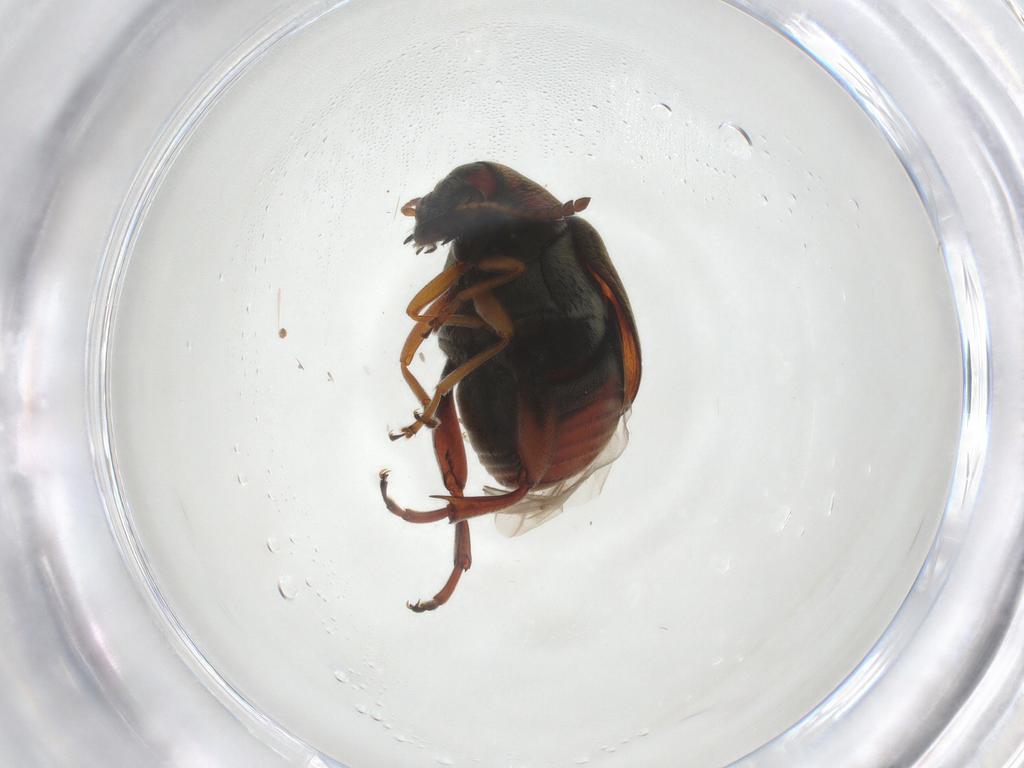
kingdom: Animalia
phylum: Arthropoda
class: Insecta
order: Coleoptera
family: Chrysomelidae
